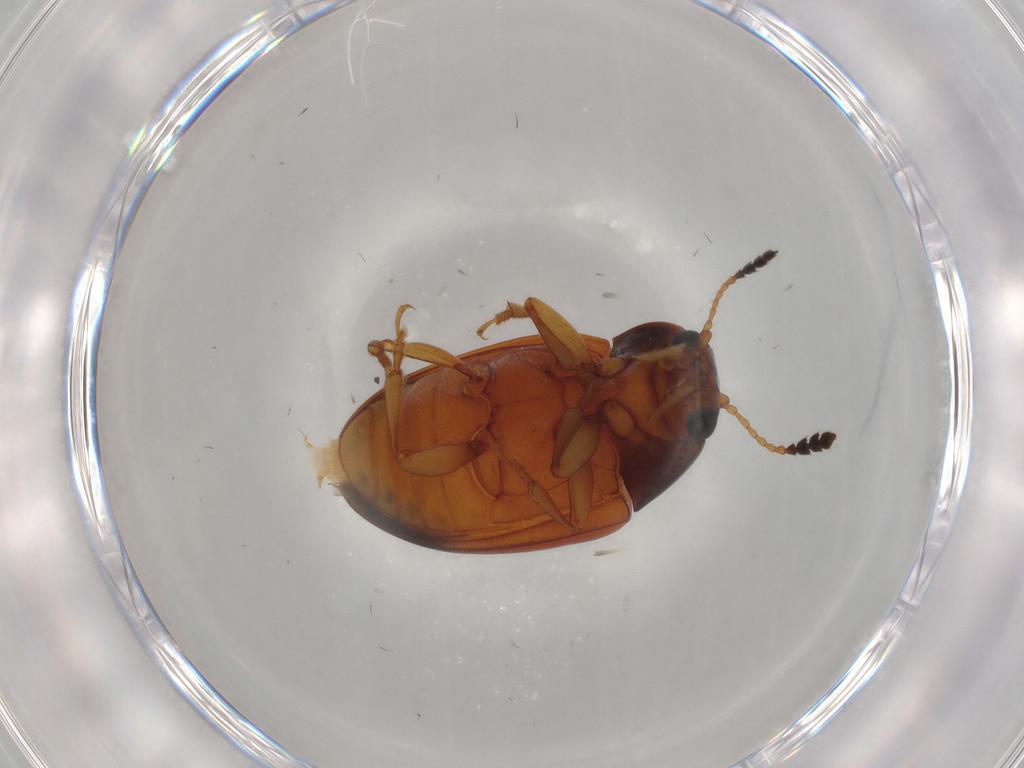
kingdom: Animalia
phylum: Arthropoda
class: Insecta
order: Coleoptera
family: Erotylidae
